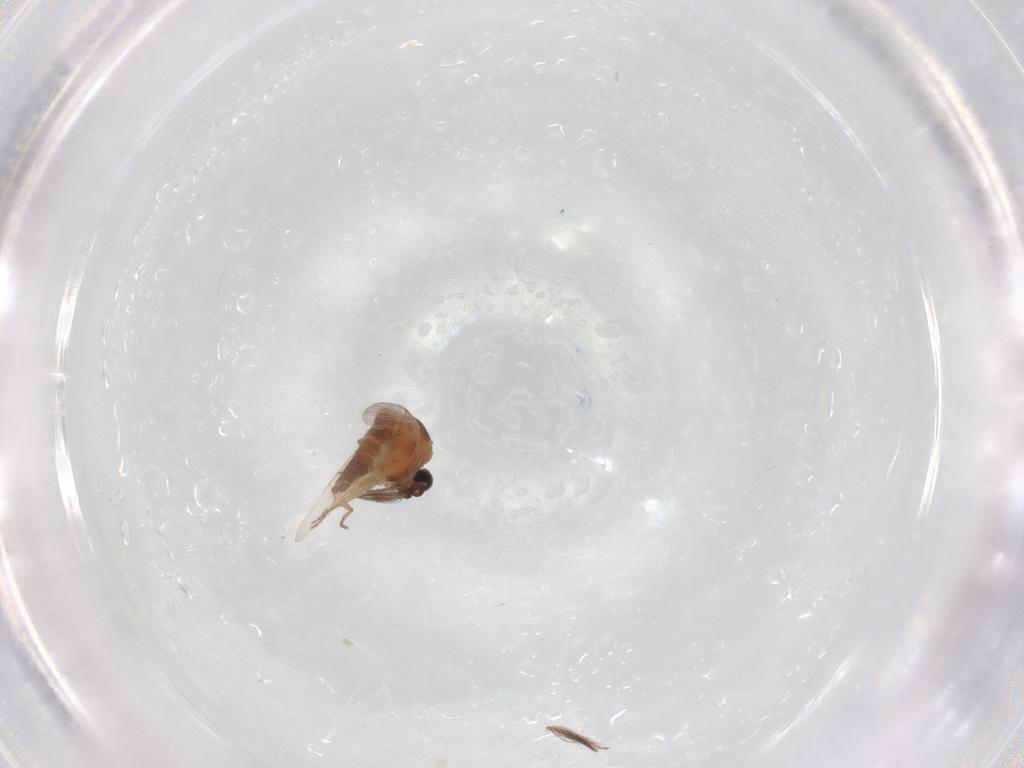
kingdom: Animalia
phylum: Arthropoda
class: Insecta
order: Diptera
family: Ceratopogonidae
